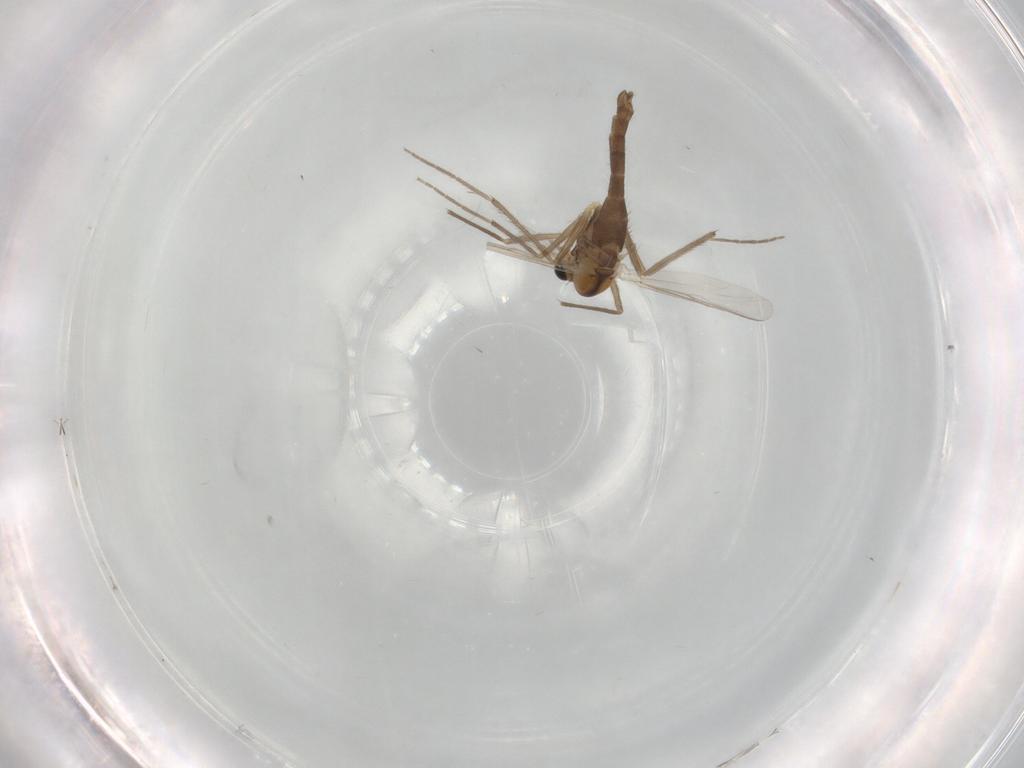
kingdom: Animalia
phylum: Arthropoda
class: Insecta
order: Diptera
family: Chironomidae
